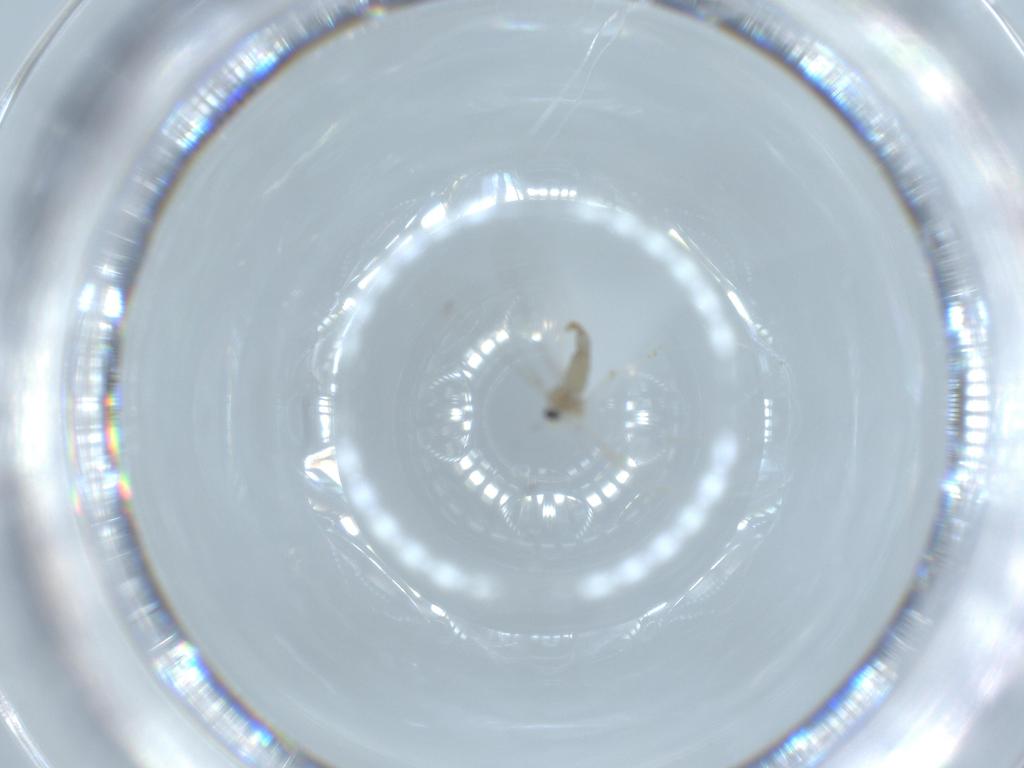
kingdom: Animalia
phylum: Arthropoda
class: Insecta
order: Diptera
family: Cecidomyiidae
